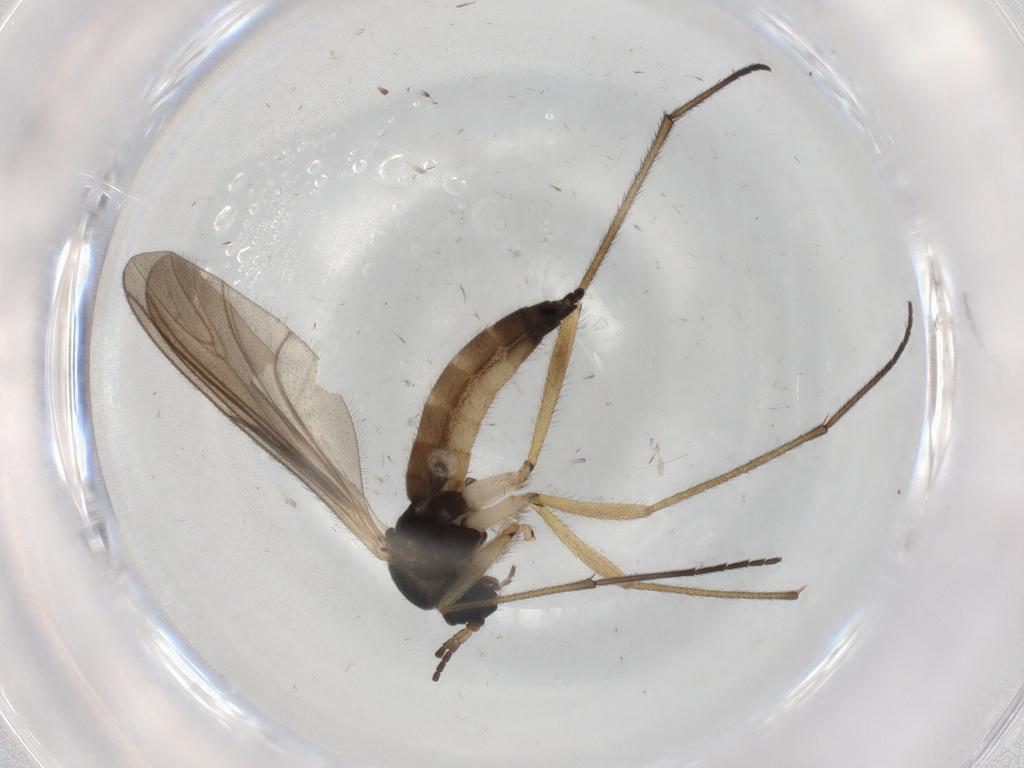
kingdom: Animalia
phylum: Arthropoda
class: Insecta
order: Diptera
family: Sciaridae
